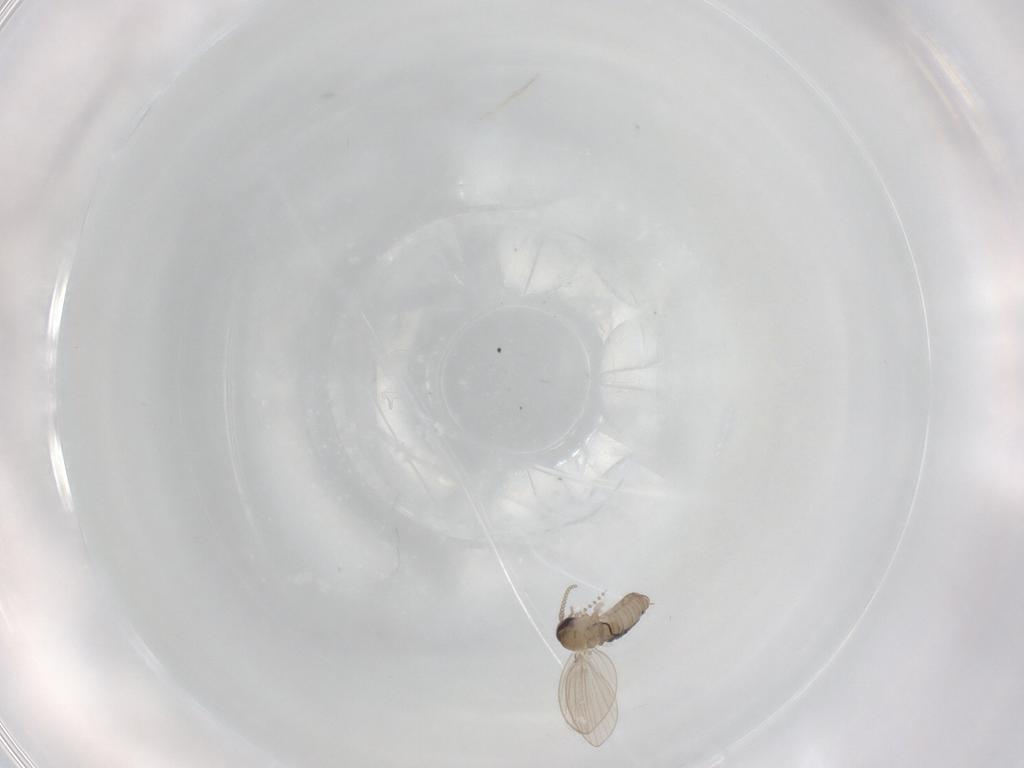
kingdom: Animalia
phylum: Arthropoda
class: Insecta
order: Diptera
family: Psychodidae
